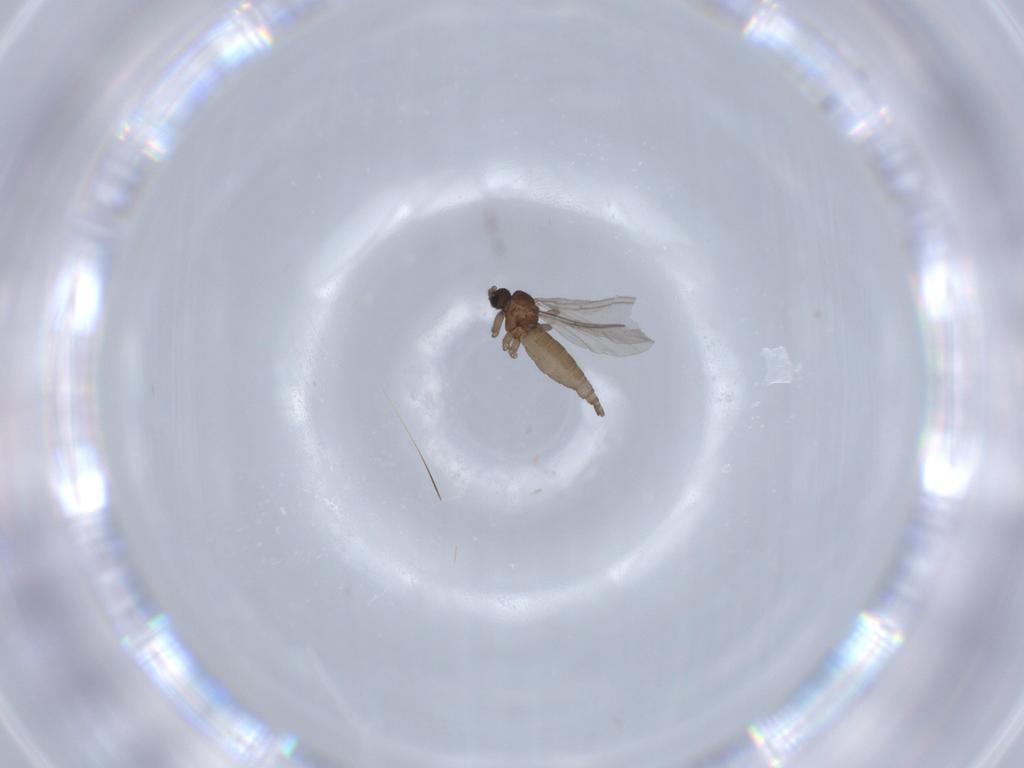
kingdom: Animalia
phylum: Arthropoda
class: Insecta
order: Diptera
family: Sciaridae
